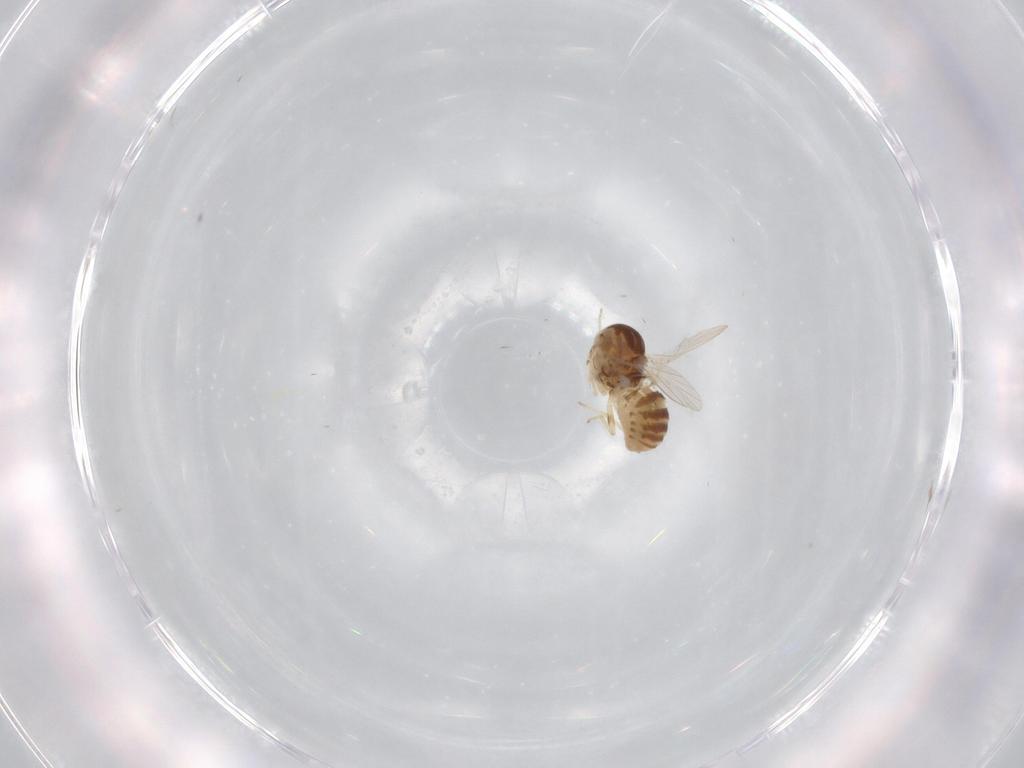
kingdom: Animalia
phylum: Arthropoda
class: Insecta
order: Diptera
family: Bombyliidae
